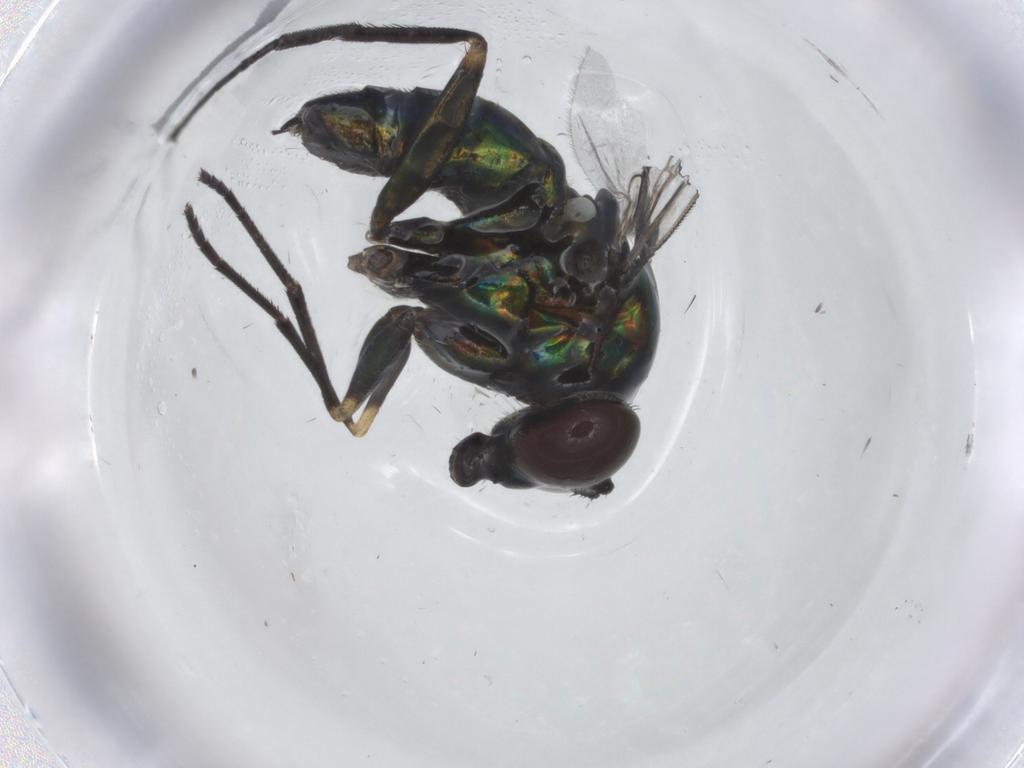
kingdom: Animalia
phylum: Arthropoda
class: Insecta
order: Diptera
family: Dolichopodidae
